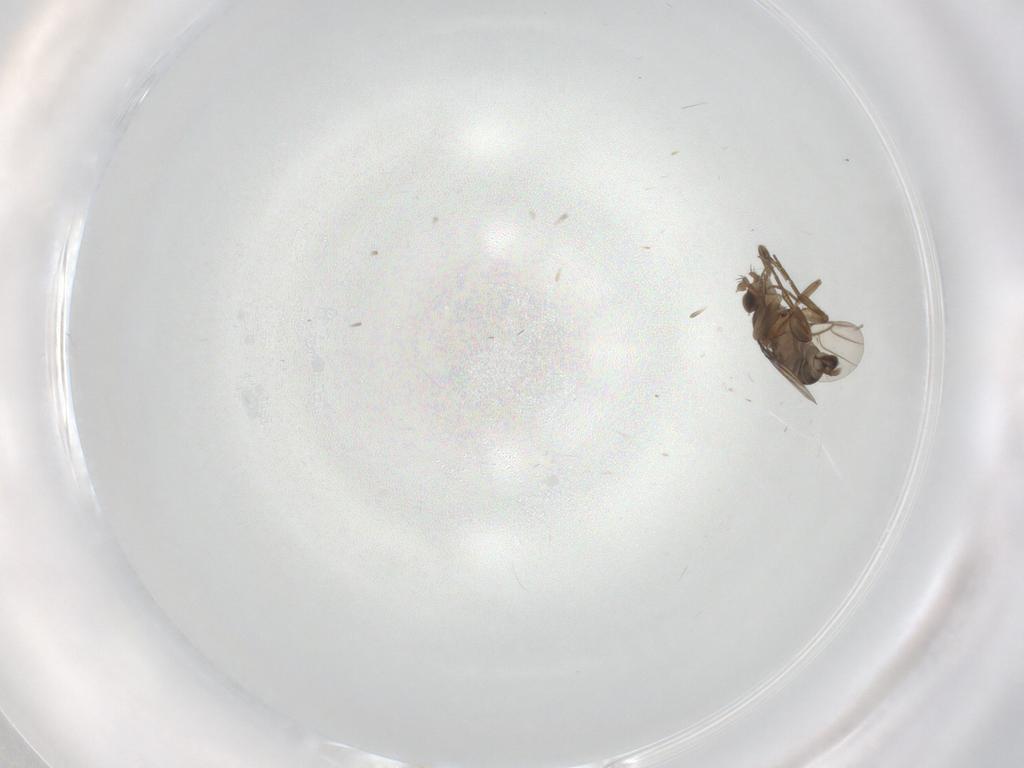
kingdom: Animalia
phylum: Arthropoda
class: Insecta
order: Diptera
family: Phoridae
